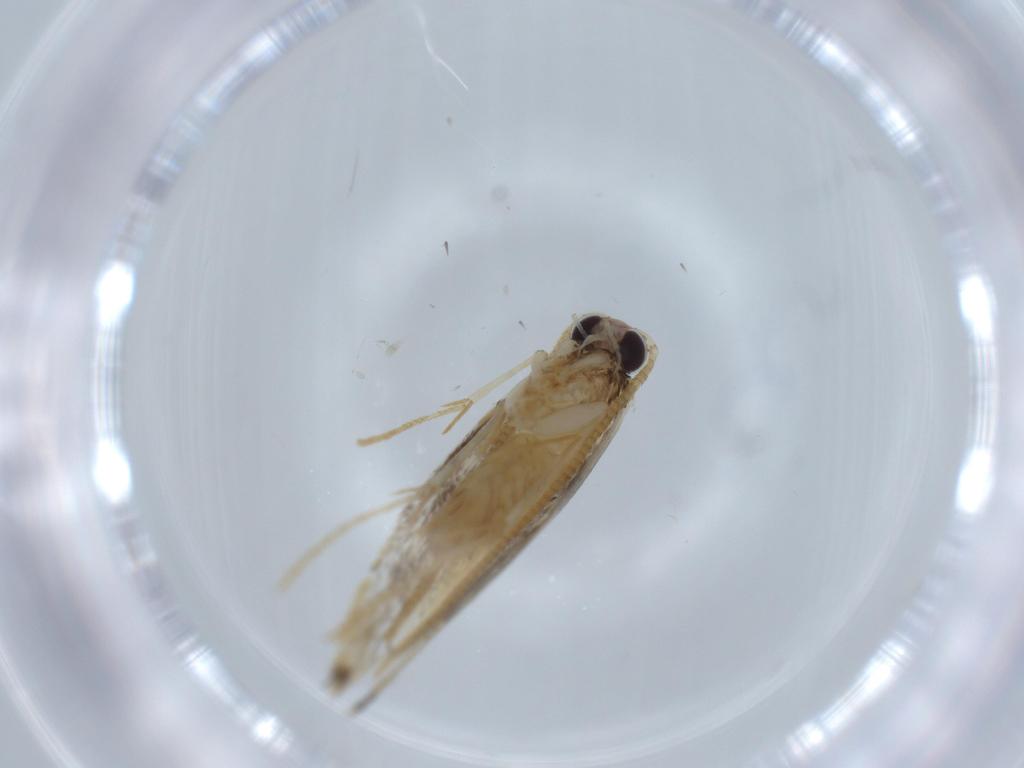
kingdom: Animalia
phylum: Arthropoda
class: Insecta
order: Lepidoptera
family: Tineidae
